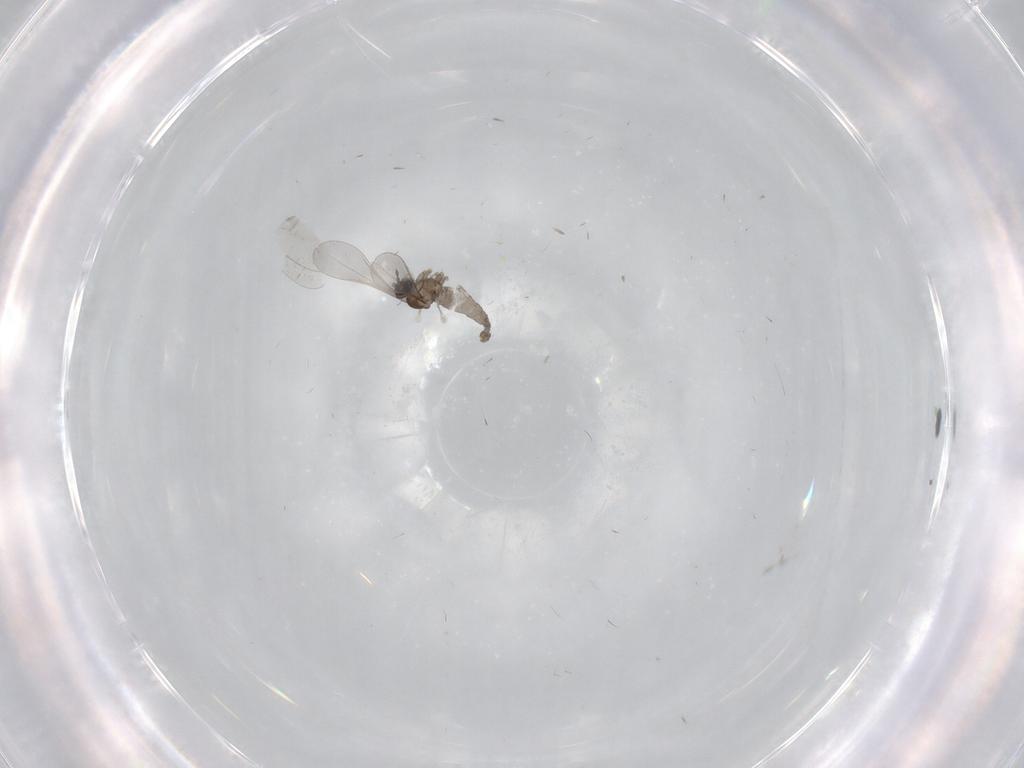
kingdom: Animalia
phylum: Arthropoda
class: Insecta
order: Diptera
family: Cecidomyiidae
